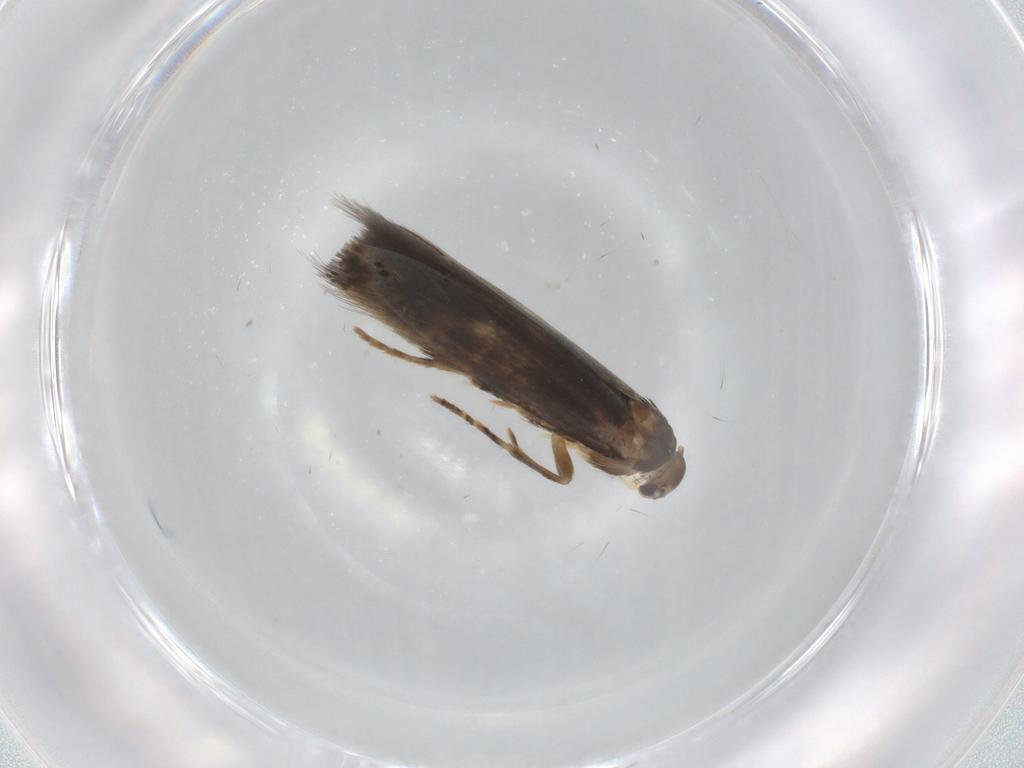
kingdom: Animalia
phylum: Arthropoda
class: Insecta
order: Lepidoptera
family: Elachistidae
